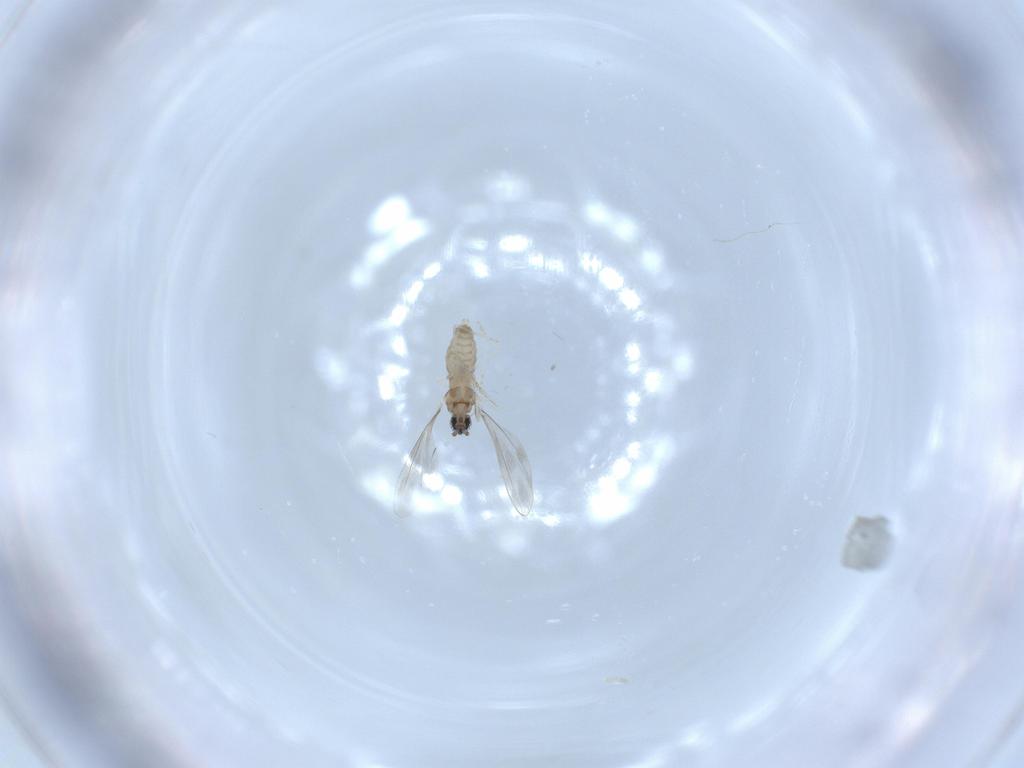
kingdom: Animalia
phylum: Arthropoda
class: Insecta
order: Diptera
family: Cecidomyiidae
